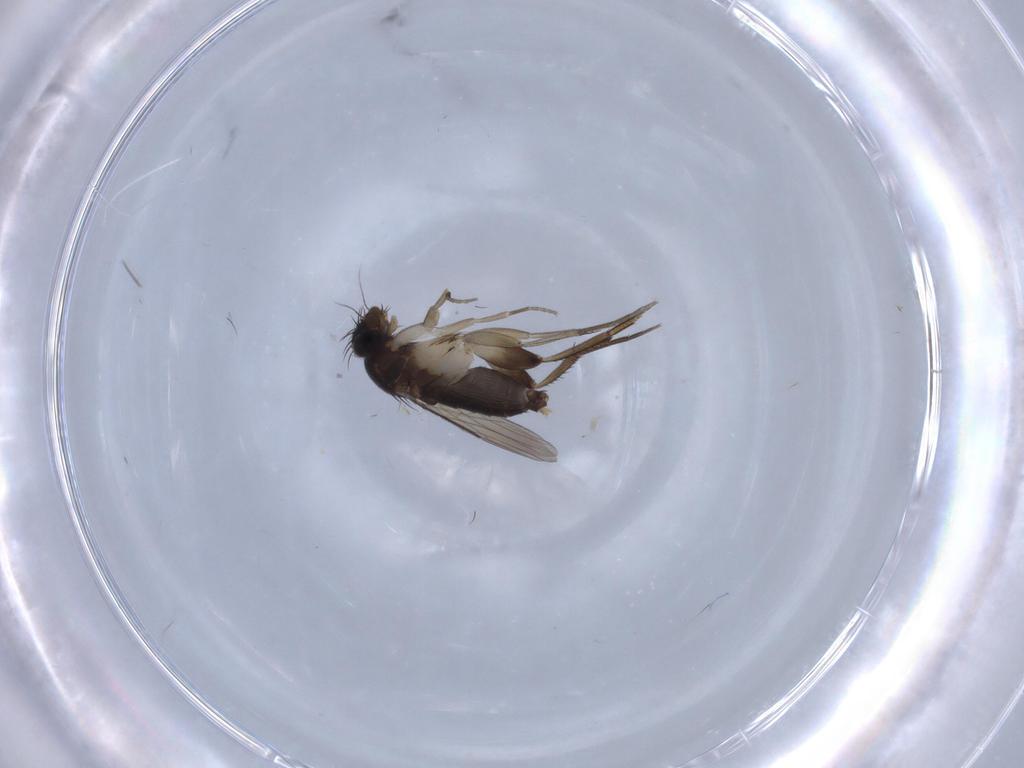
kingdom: Animalia
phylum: Arthropoda
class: Insecta
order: Diptera
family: Phoridae
